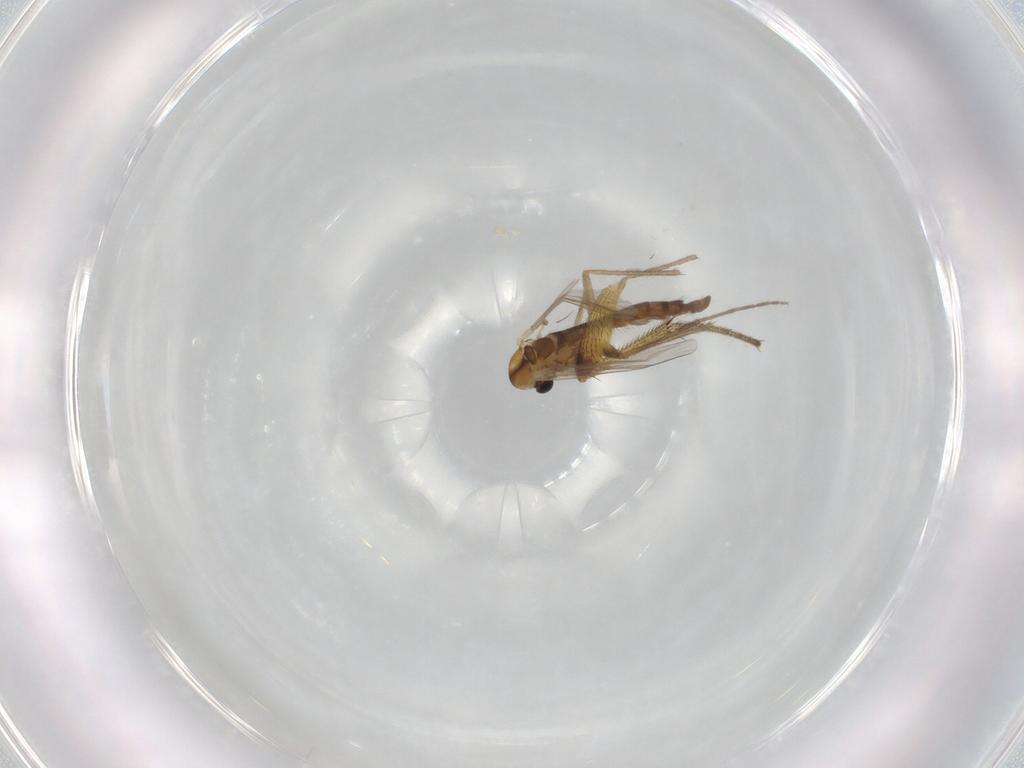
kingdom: Animalia
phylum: Arthropoda
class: Insecta
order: Diptera
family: Chironomidae
